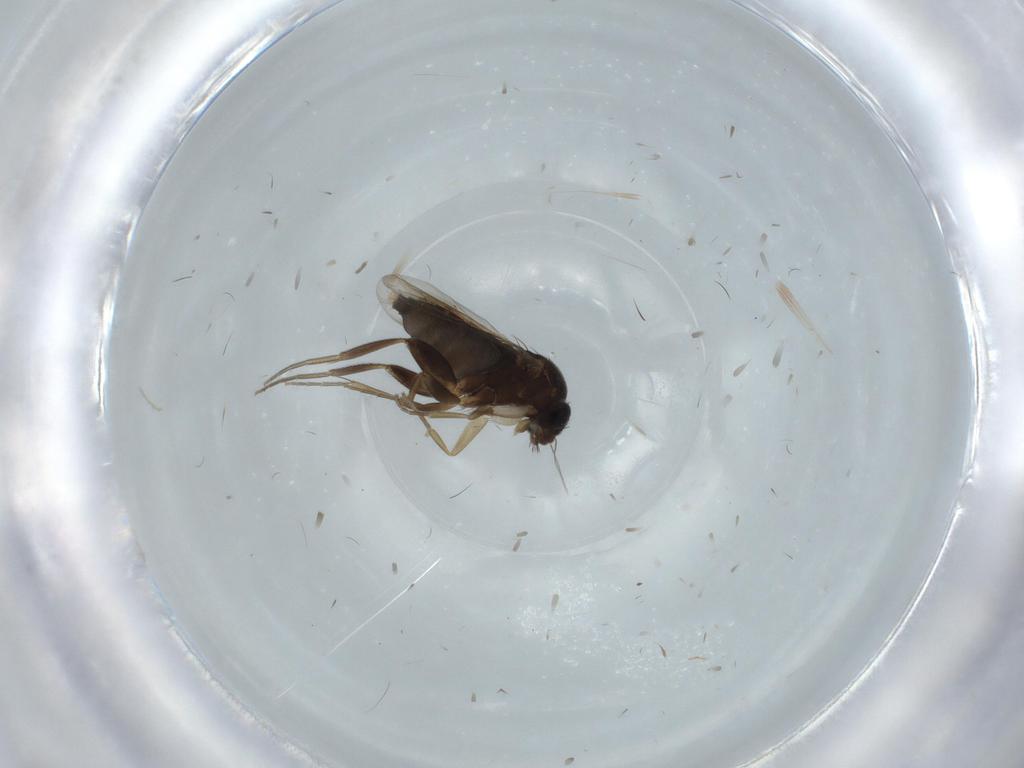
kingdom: Animalia
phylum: Arthropoda
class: Insecta
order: Diptera
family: Phoridae
